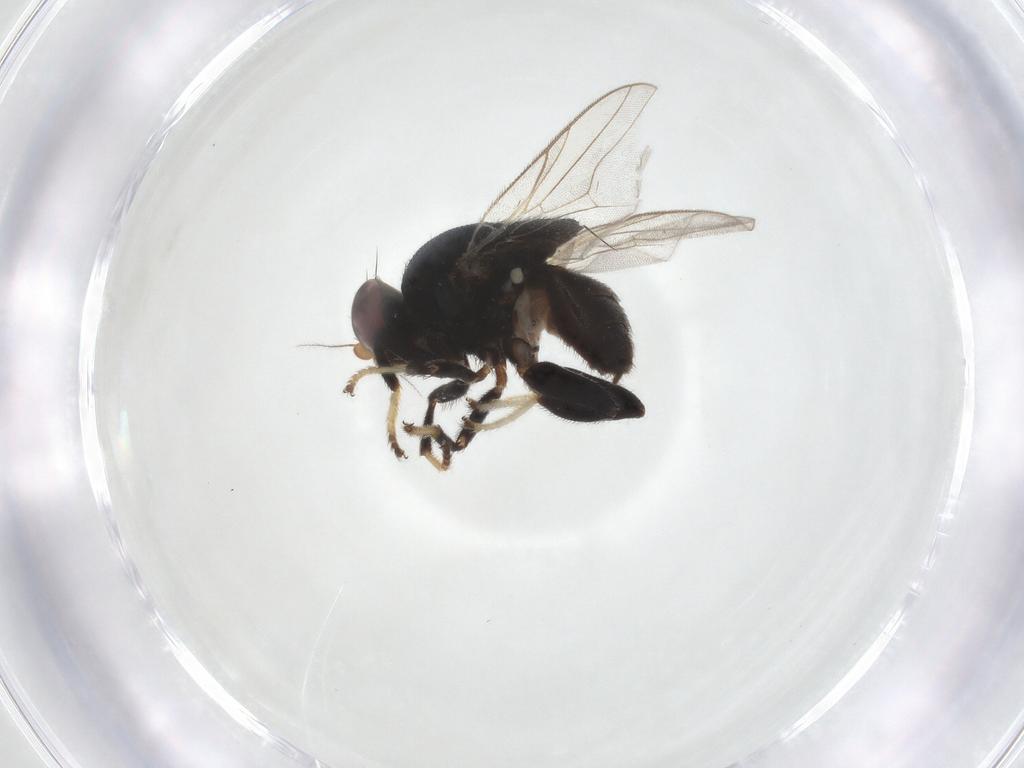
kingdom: Animalia
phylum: Arthropoda
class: Insecta
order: Diptera
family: Chloropidae
